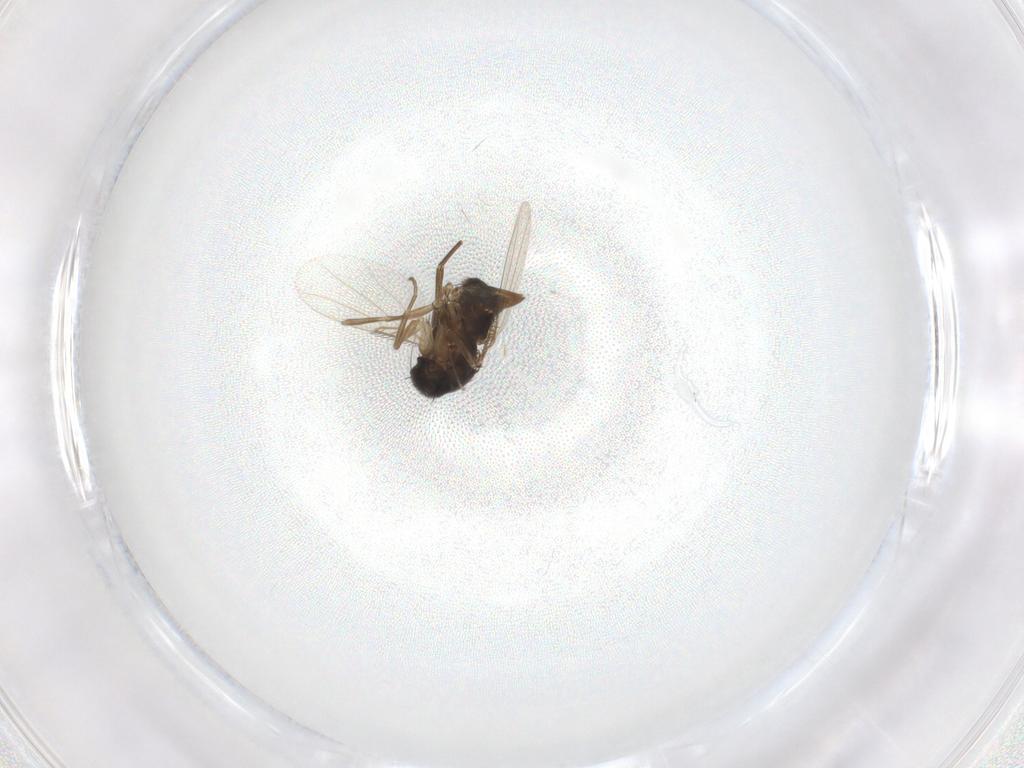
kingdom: Animalia
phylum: Arthropoda
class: Insecta
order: Diptera
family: Phoridae
